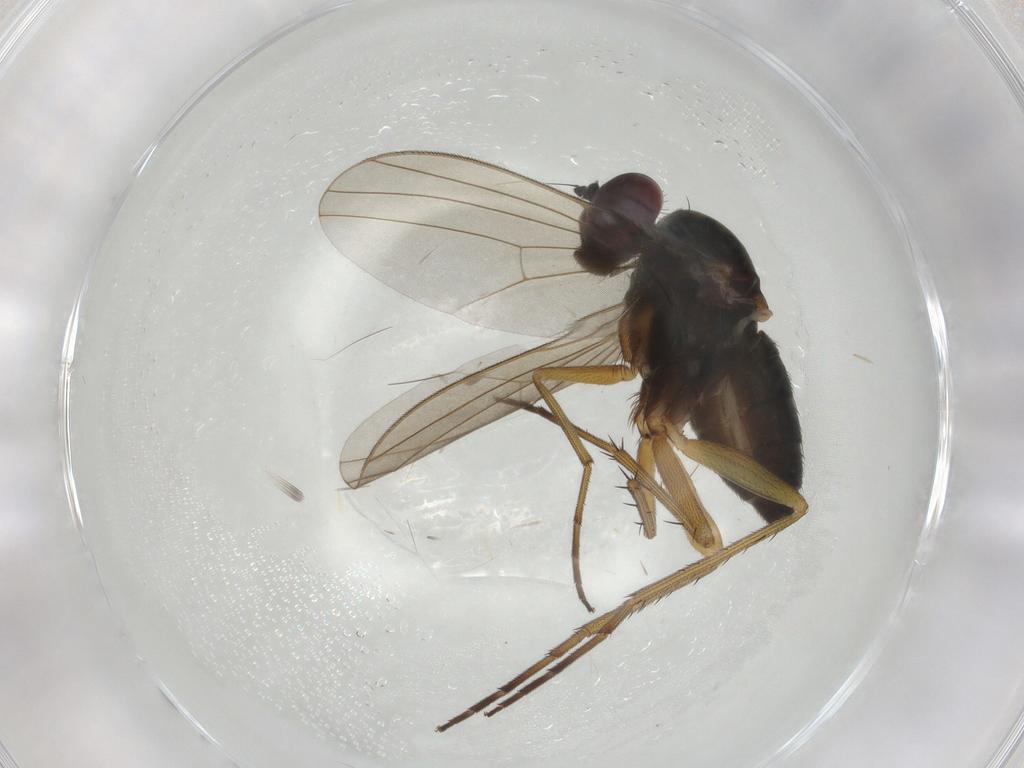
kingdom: Animalia
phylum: Arthropoda
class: Insecta
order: Diptera
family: Dolichopodidae
